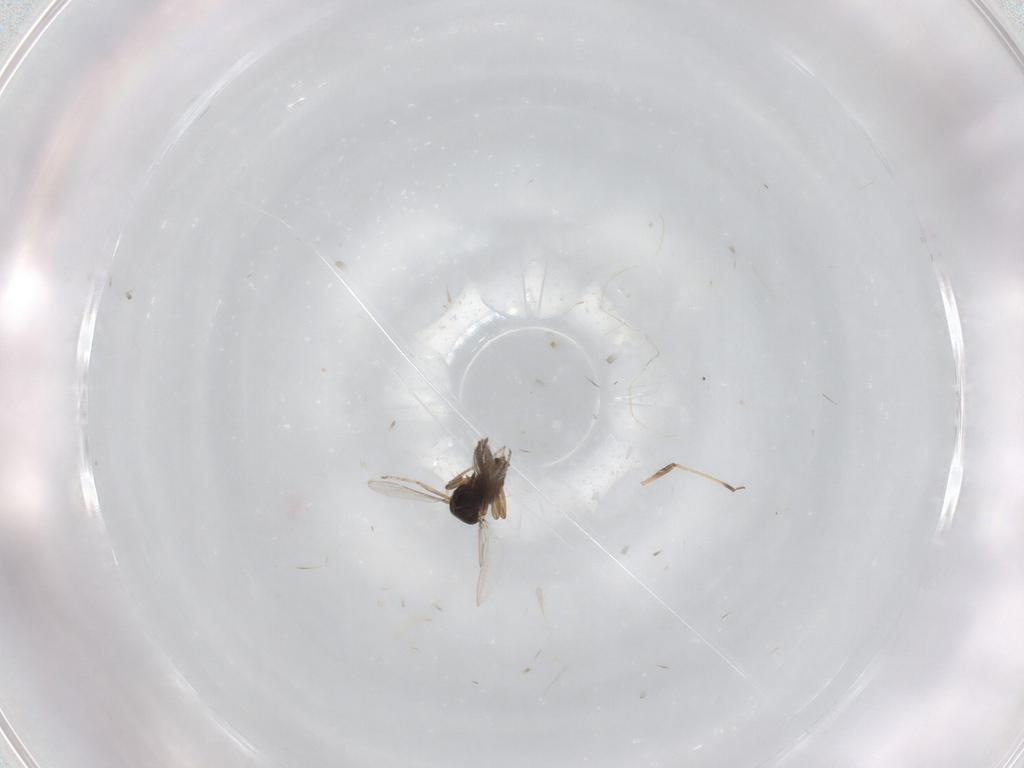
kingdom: Animalia
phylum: Arthropoda
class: Insecta
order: Diptera
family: Ceratopogonidae
